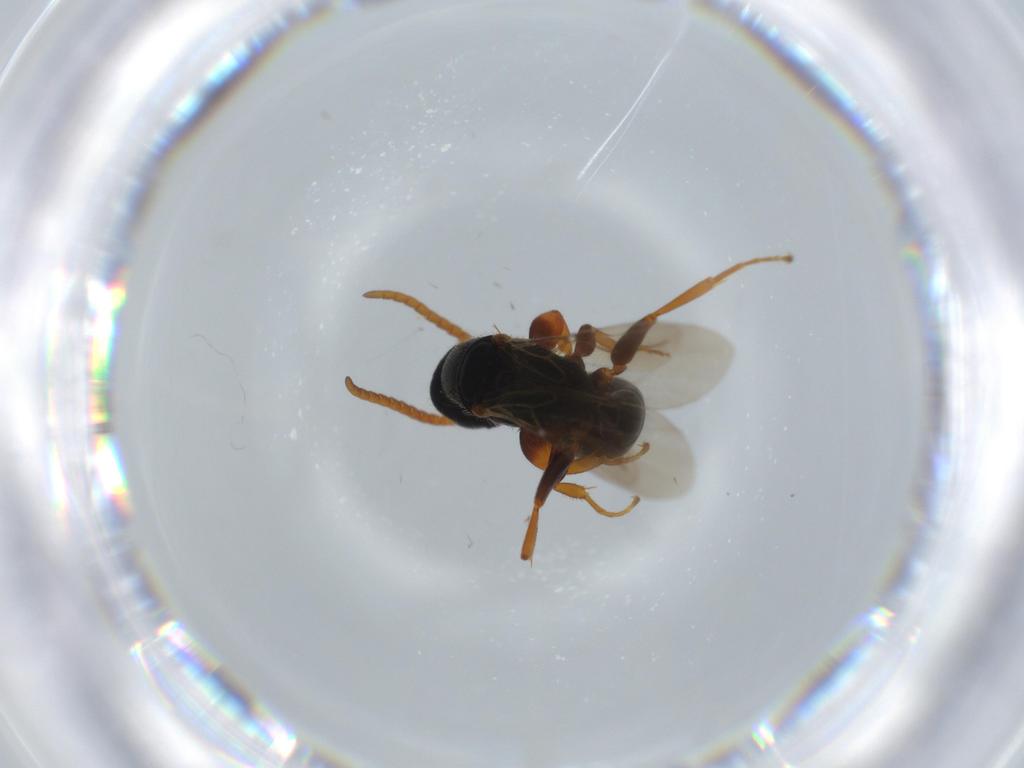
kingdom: Animalia
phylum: Arthropoda
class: Insecta
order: Hymenoptera
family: Bethylidae
